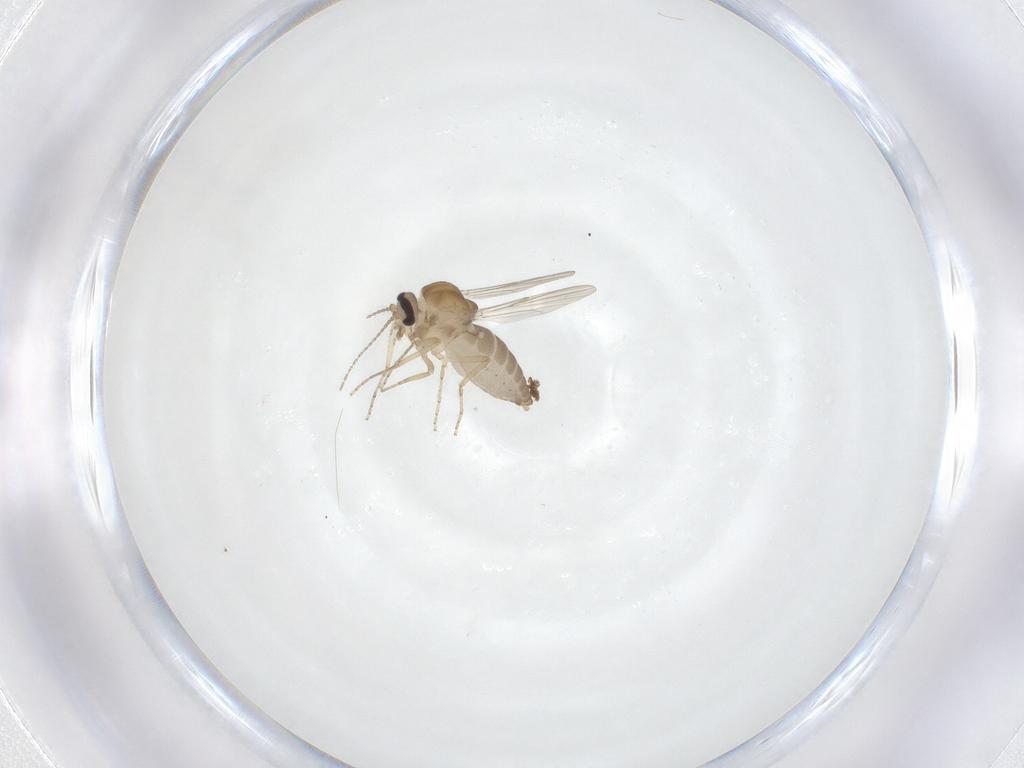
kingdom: Animalia
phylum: Arthropoda
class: Insecta
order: Diptera
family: Ceratopogonidae
